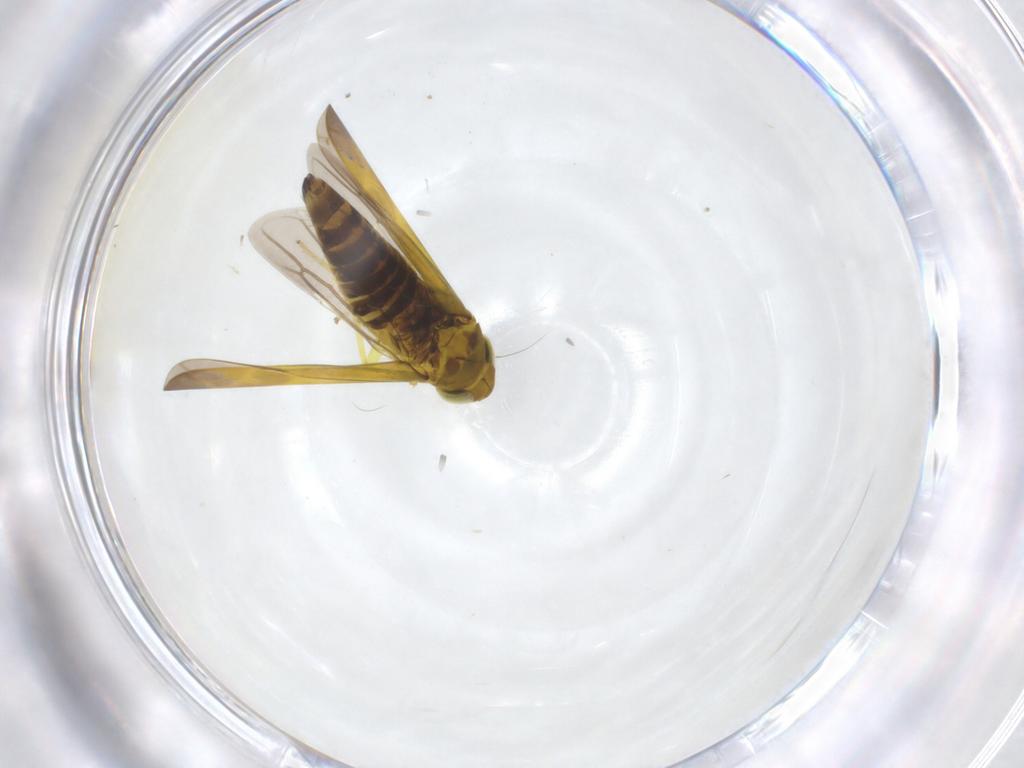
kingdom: Animalia
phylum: Arthropoda
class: Insecta
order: Hemiptera
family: Cicadellidae
